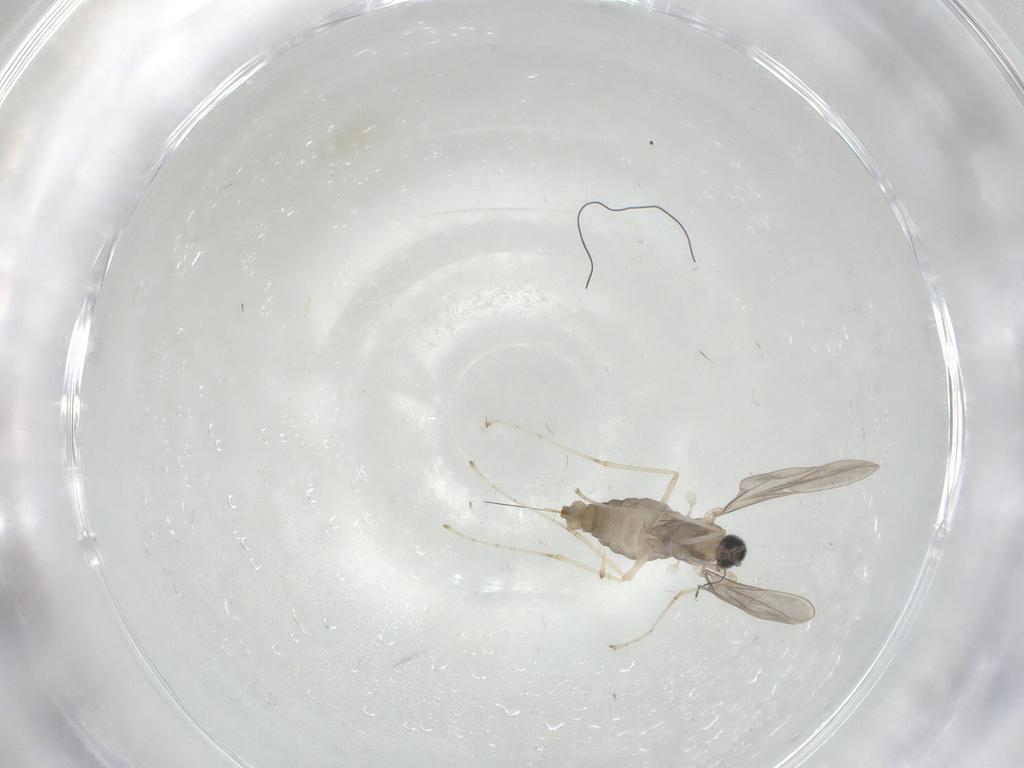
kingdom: Animalia
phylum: Arthropoda
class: Insecta
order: Diptera
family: Cecidomyiidae
